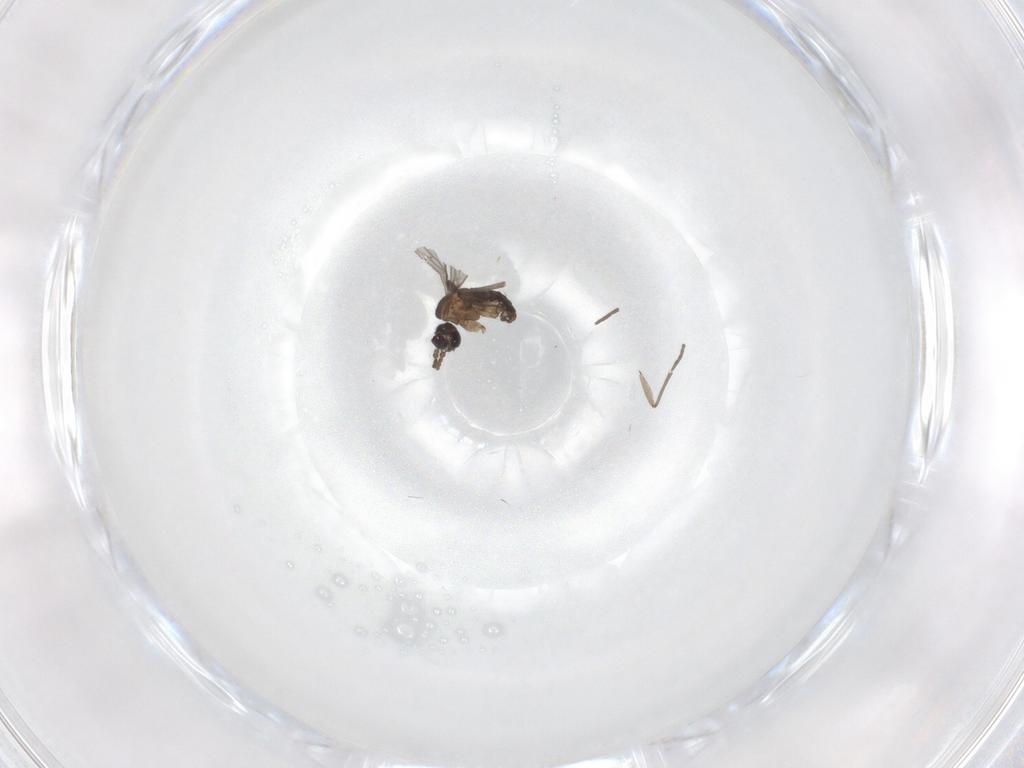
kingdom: Animalia
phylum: Arthropoda
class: Insecta
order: Diptera
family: Sciaridae
